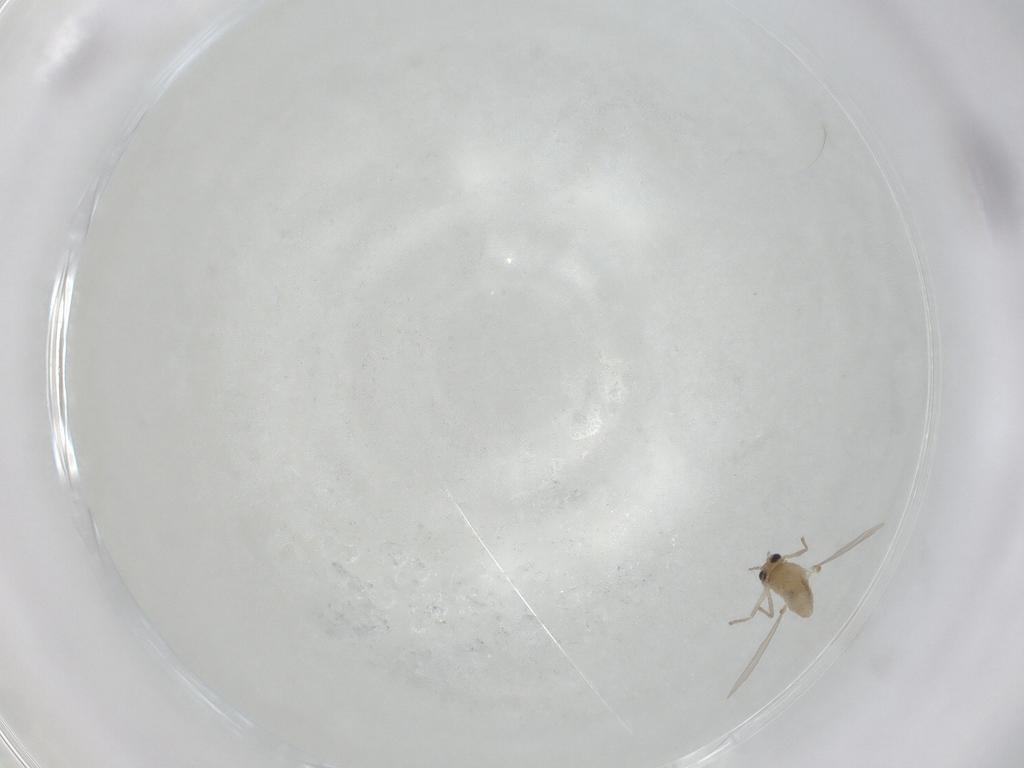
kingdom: Animalia
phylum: Arthropoda
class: Insecta
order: Diptera
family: Chironomidae
